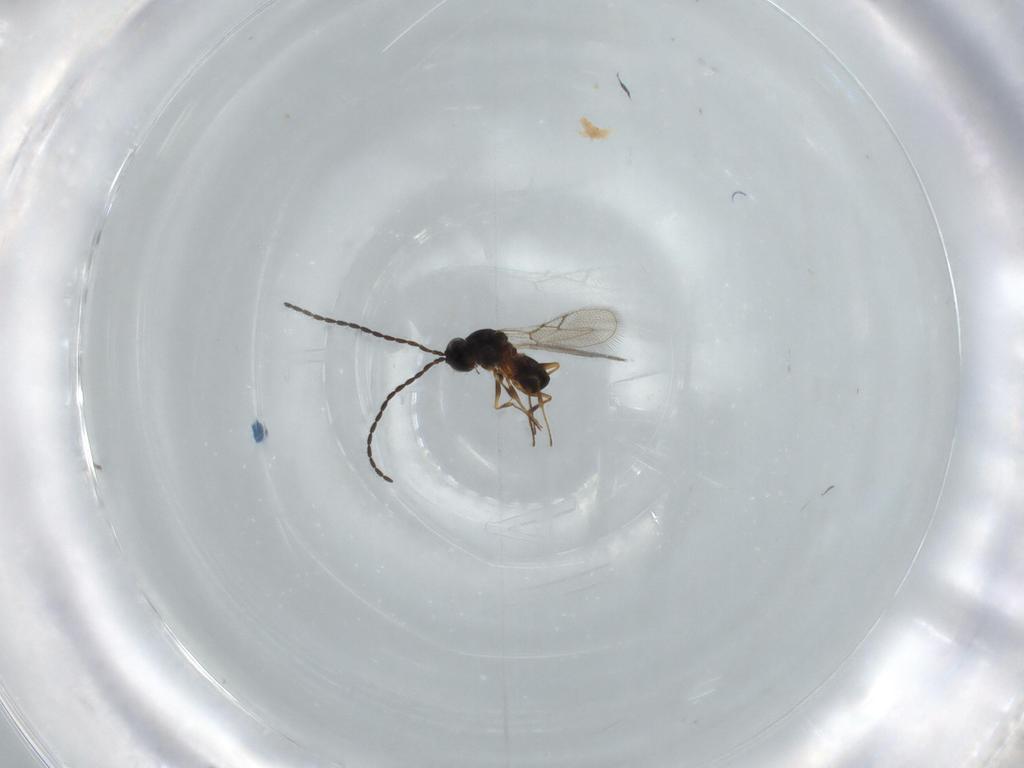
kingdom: Animalia
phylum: Arthropoda
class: Insecta
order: Hymenoptera
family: Figitidae
